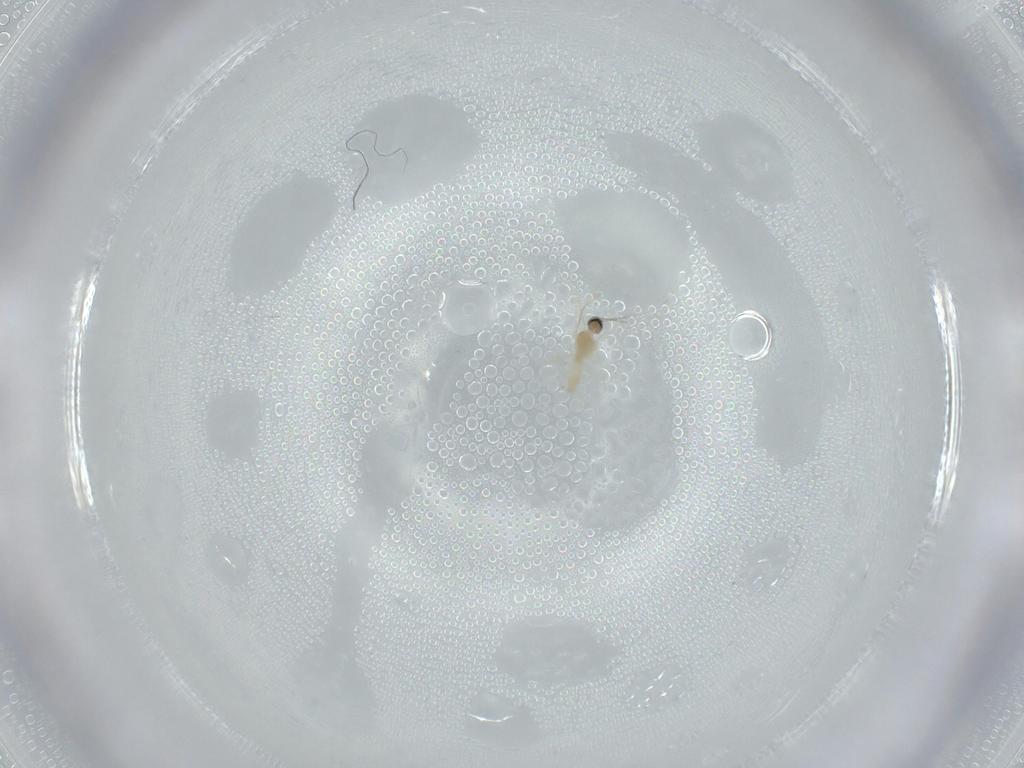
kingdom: Animalia
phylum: Arthropoda
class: Insecta
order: Diptera
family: Cecidomyiidae
